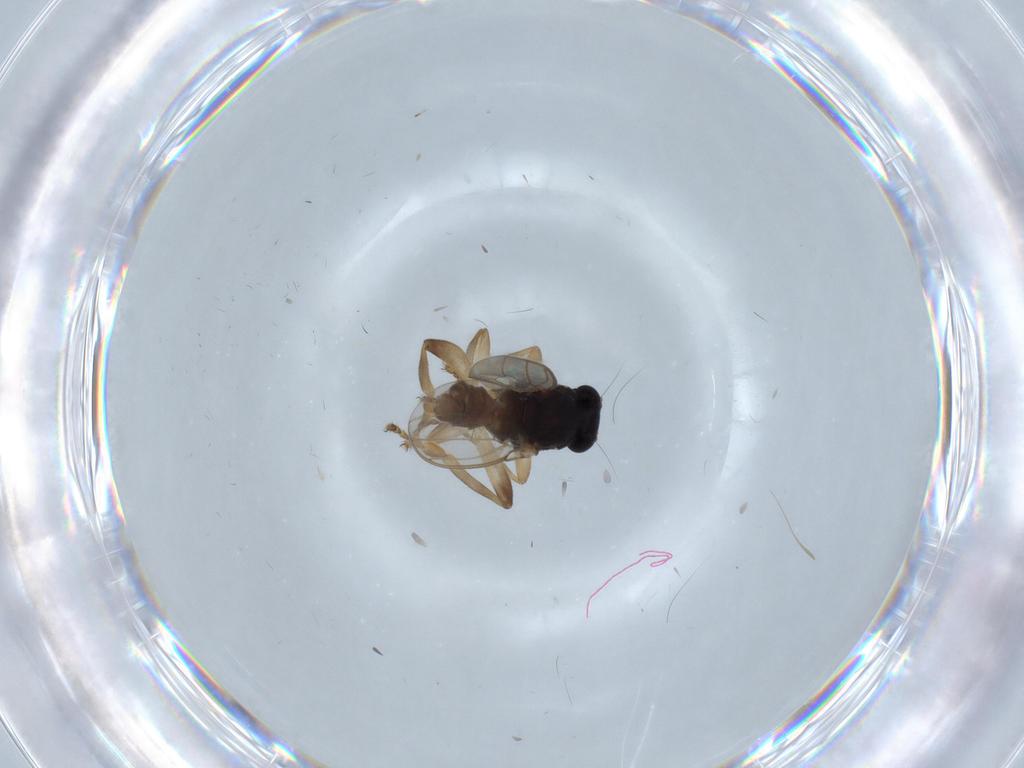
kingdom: Animalia
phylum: Arthropoda
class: Insecta
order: Diptera
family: Sphaeroceridae
